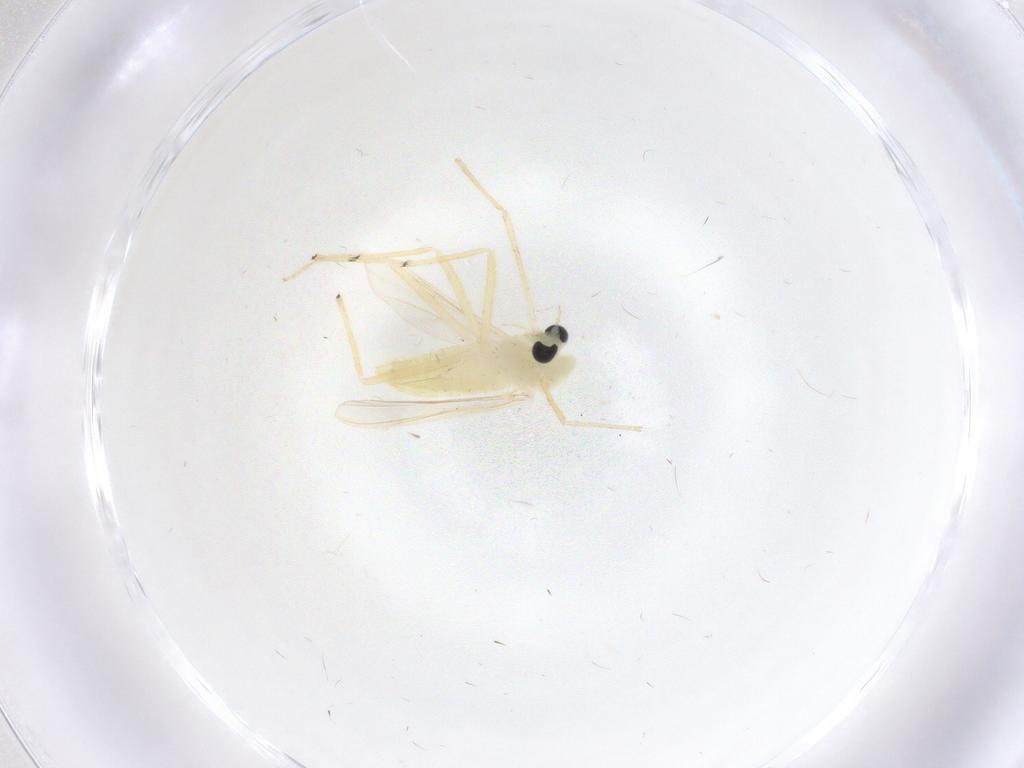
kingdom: Animalia
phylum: Arthropoda
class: Insecta
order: Diptera
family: Chironomidae
